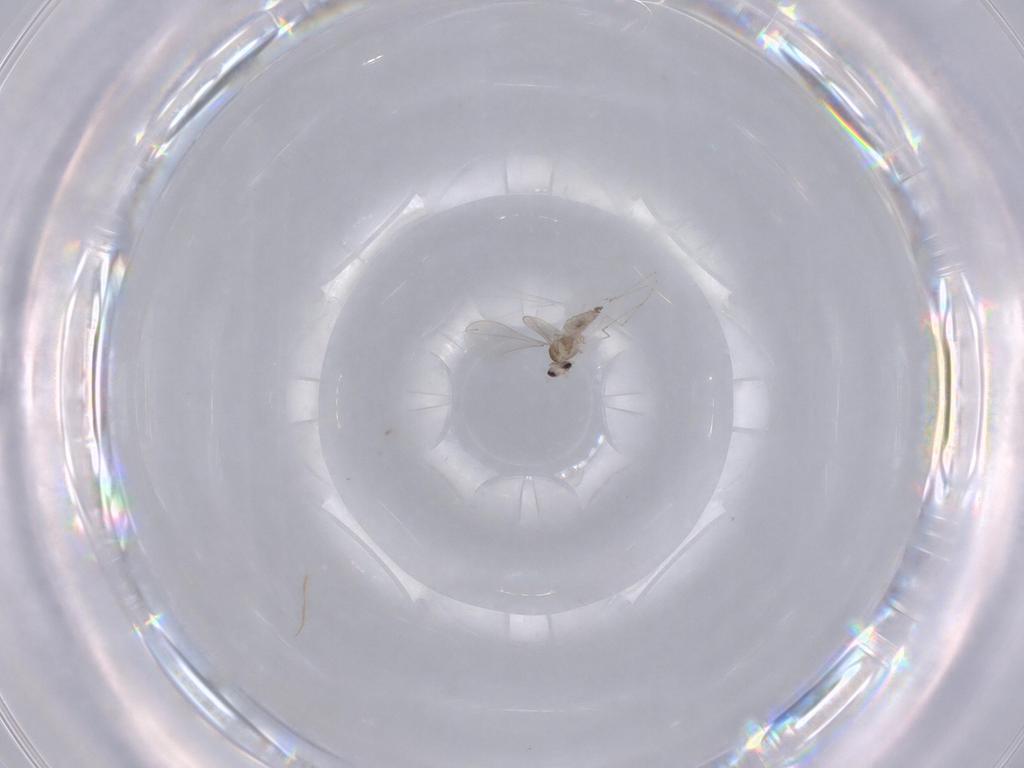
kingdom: Animalia
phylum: Arthropoda
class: Insecta
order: Diptera
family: Cecidomyiidae
